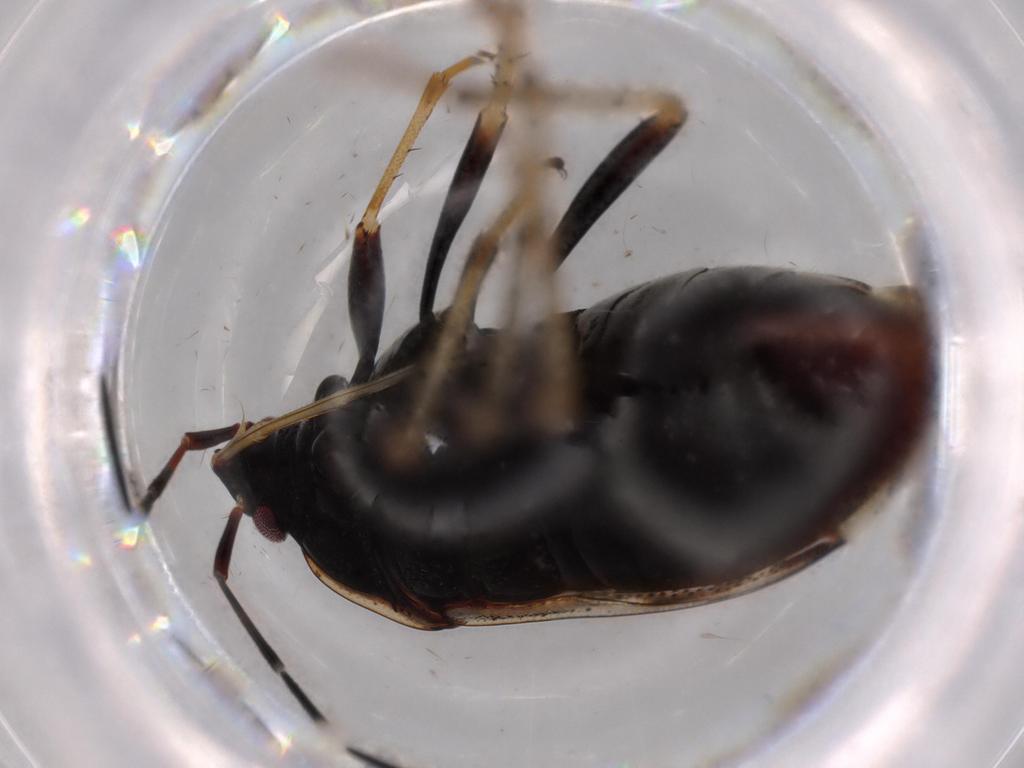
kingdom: Animalia
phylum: Arthropoda
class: Insecta
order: Hemiptera
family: Rhyparochromidae
